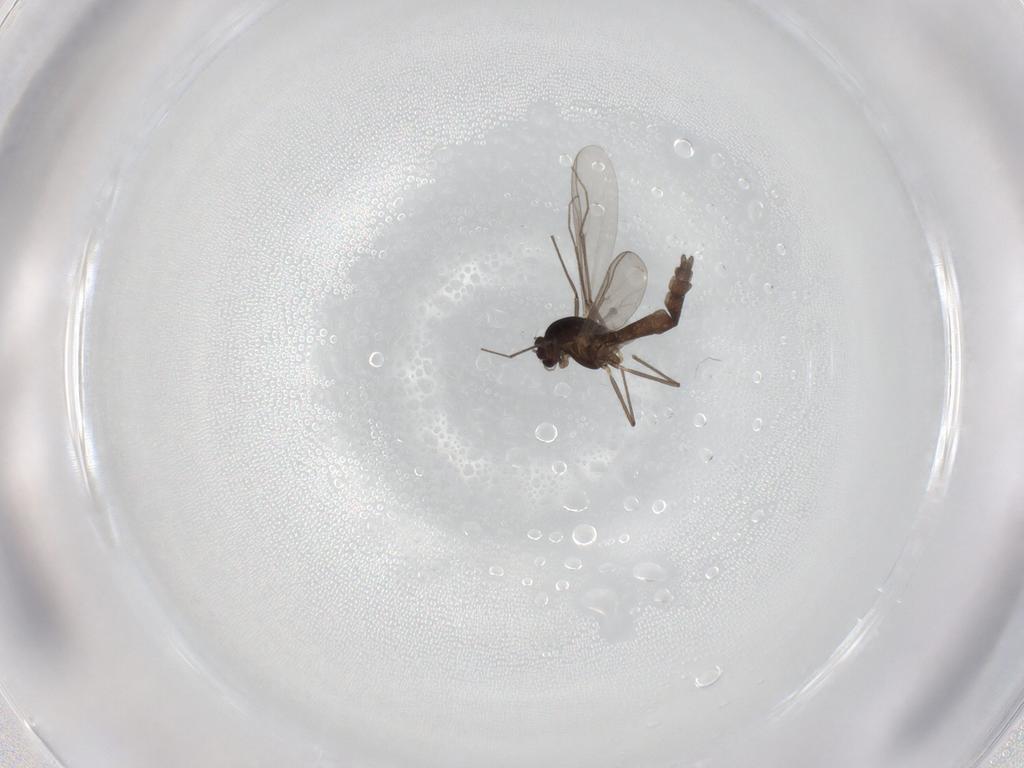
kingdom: Animalia
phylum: Arthropoda
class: Insecta
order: Diptera
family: Chironomidae
